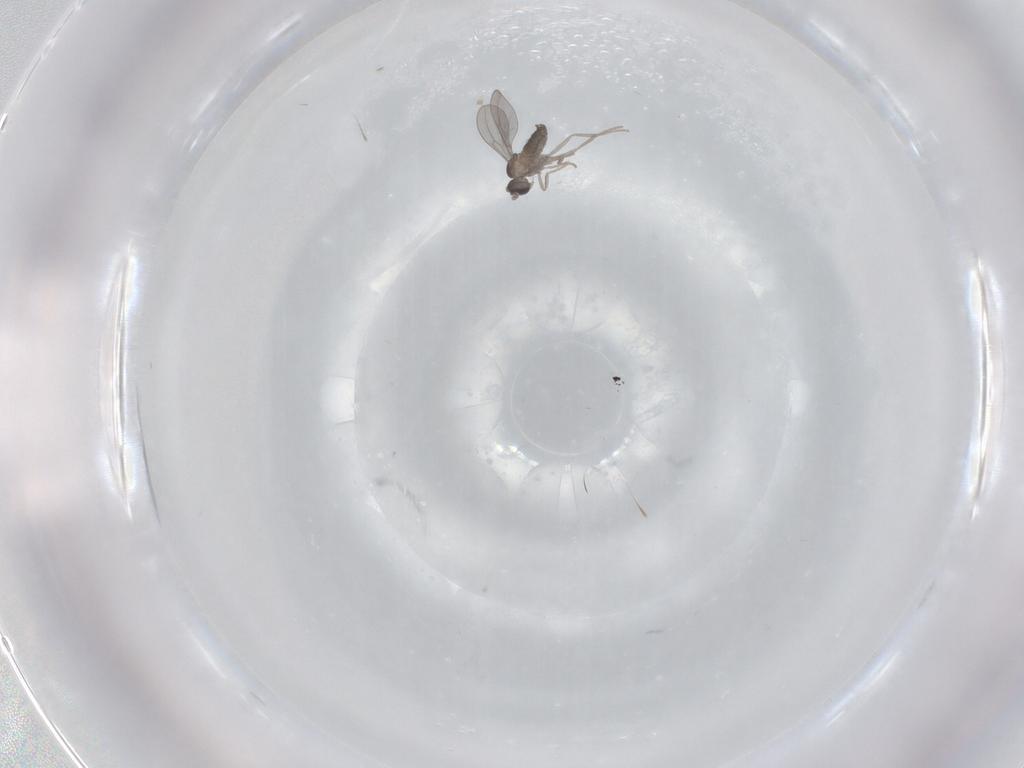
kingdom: Animalia
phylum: Arthropoda
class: Insecta
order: Diptera
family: Cecidomyiidae
